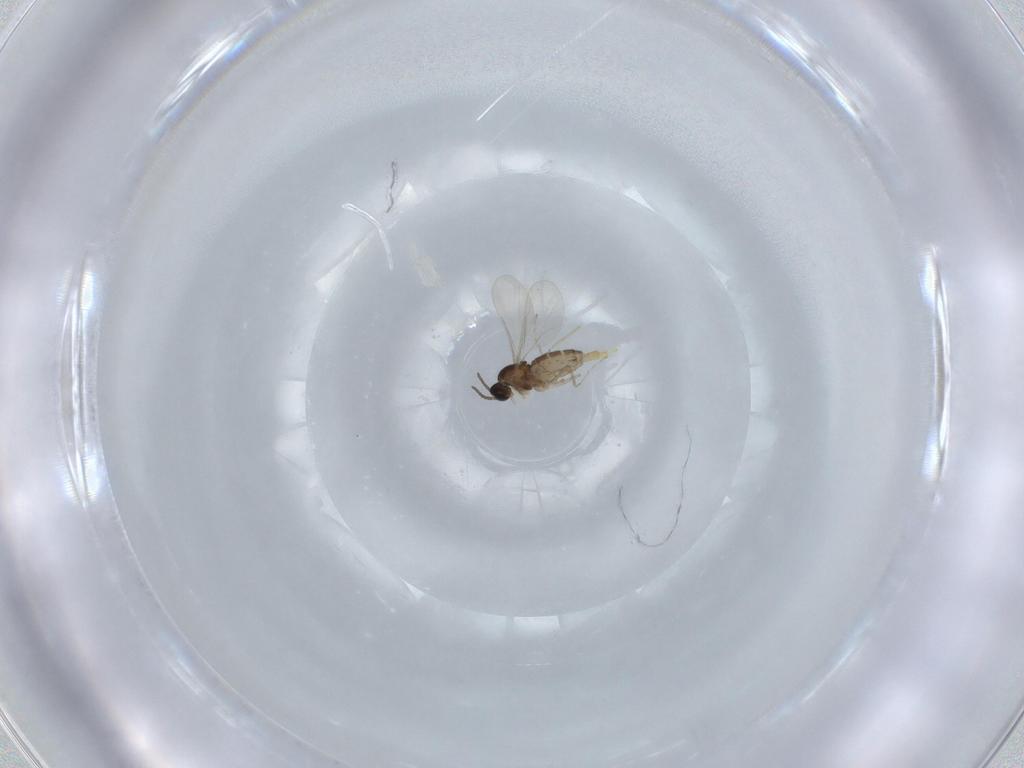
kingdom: Animalia
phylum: Arthropoda
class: Insecta
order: Diptera
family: Cecidomyiidae
